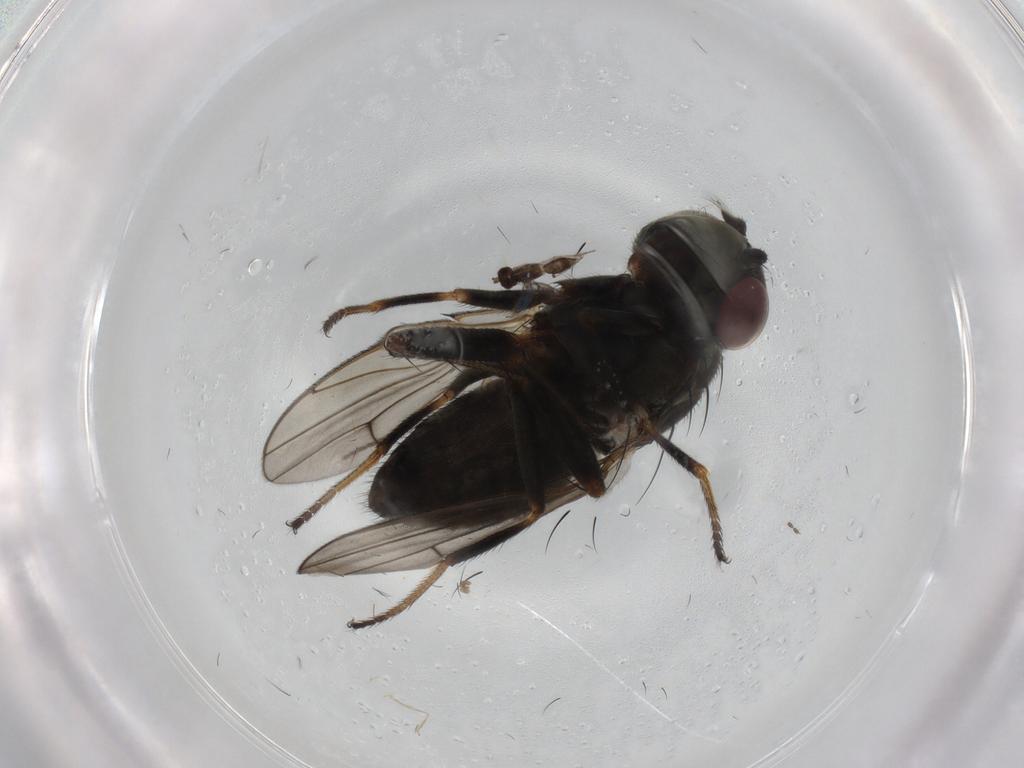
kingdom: Animalia
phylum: Arthropoda
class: Insecta
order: Diptera
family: Ephydridae
